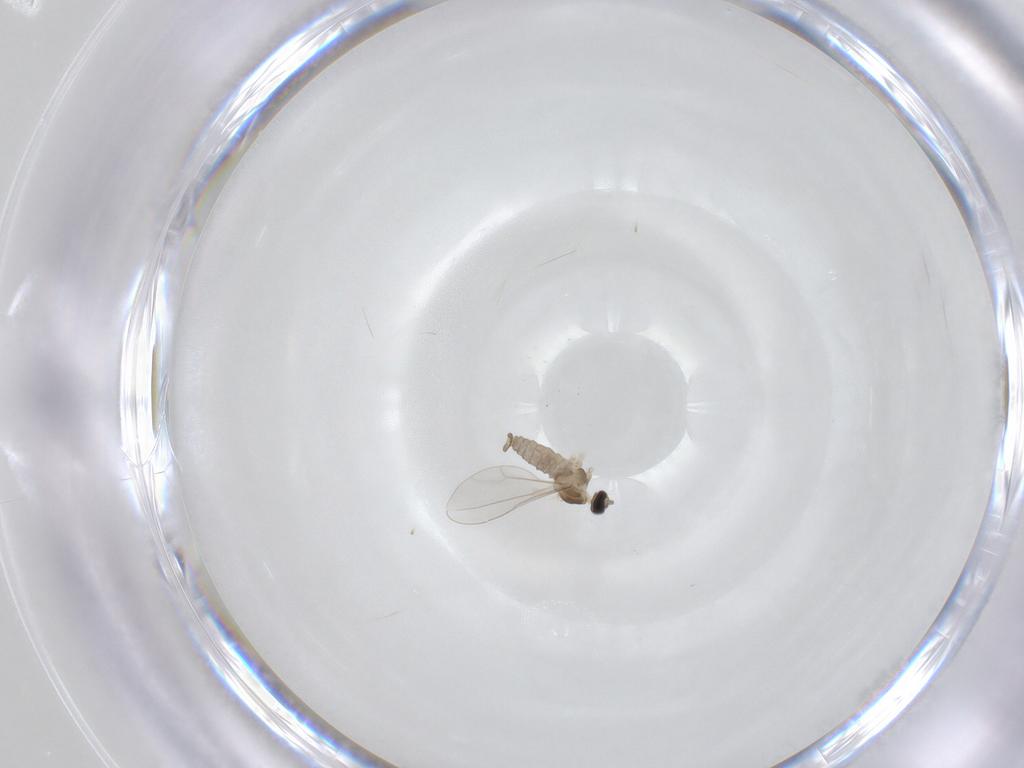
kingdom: Animalia
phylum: Arthropoda
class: Insecta
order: Diptera
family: Cecidomyiidae
